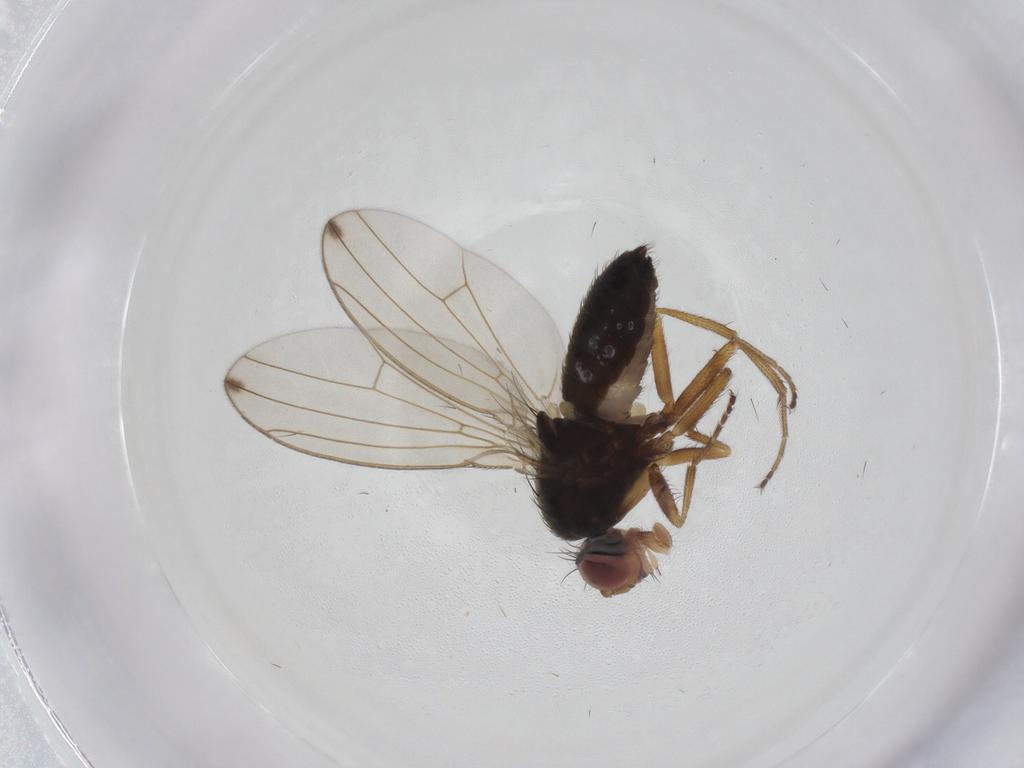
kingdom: Animalia
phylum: Arthropoda
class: Insecta
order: Diptera
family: Drosophilidae
